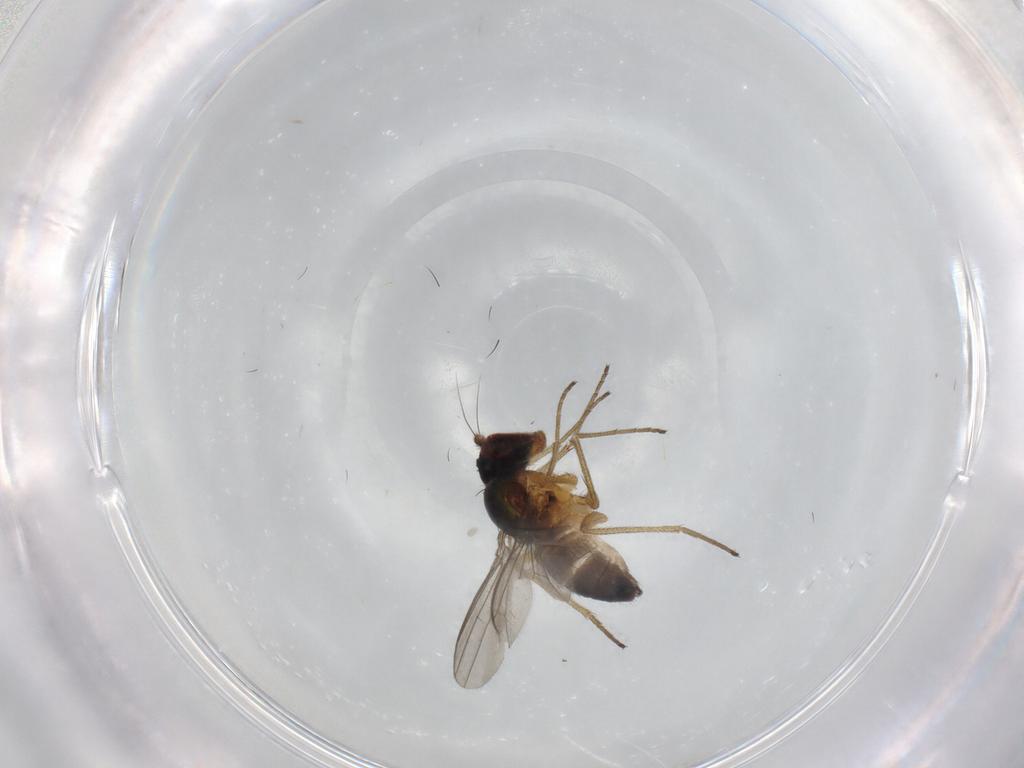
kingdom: Animalia
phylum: Arthropoda
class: Insecta
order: Diptera
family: Dolichopodidae
